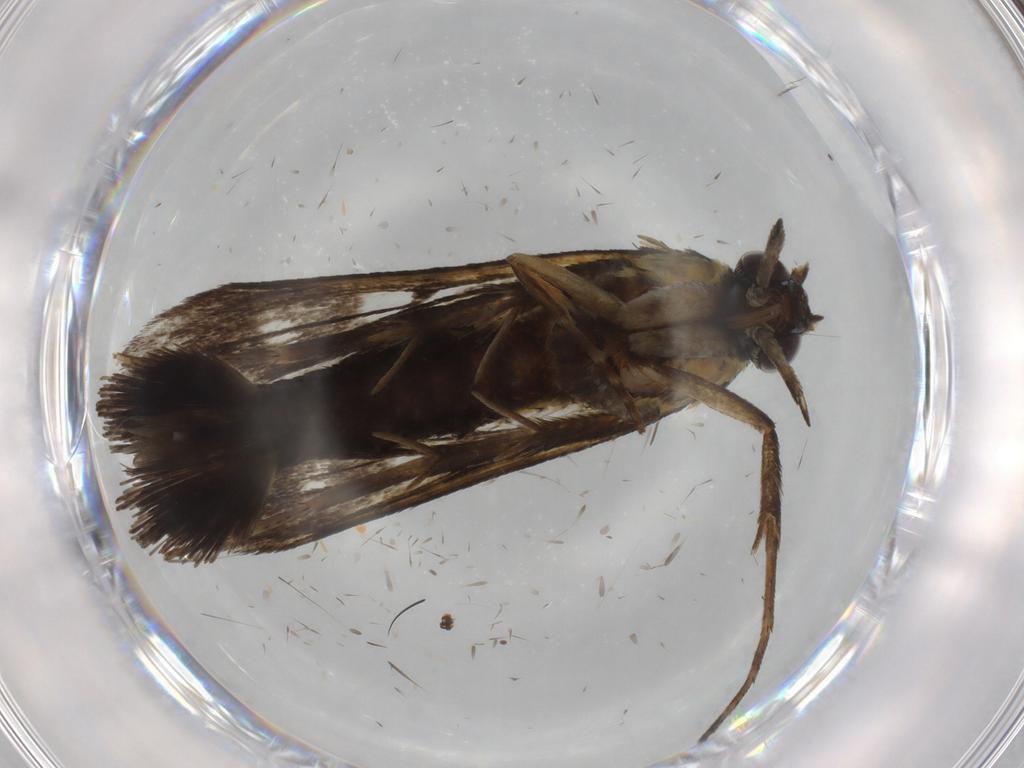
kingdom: Animalia
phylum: Arthropoda
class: Insecta
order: Lepidoptera
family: Sesiidae
